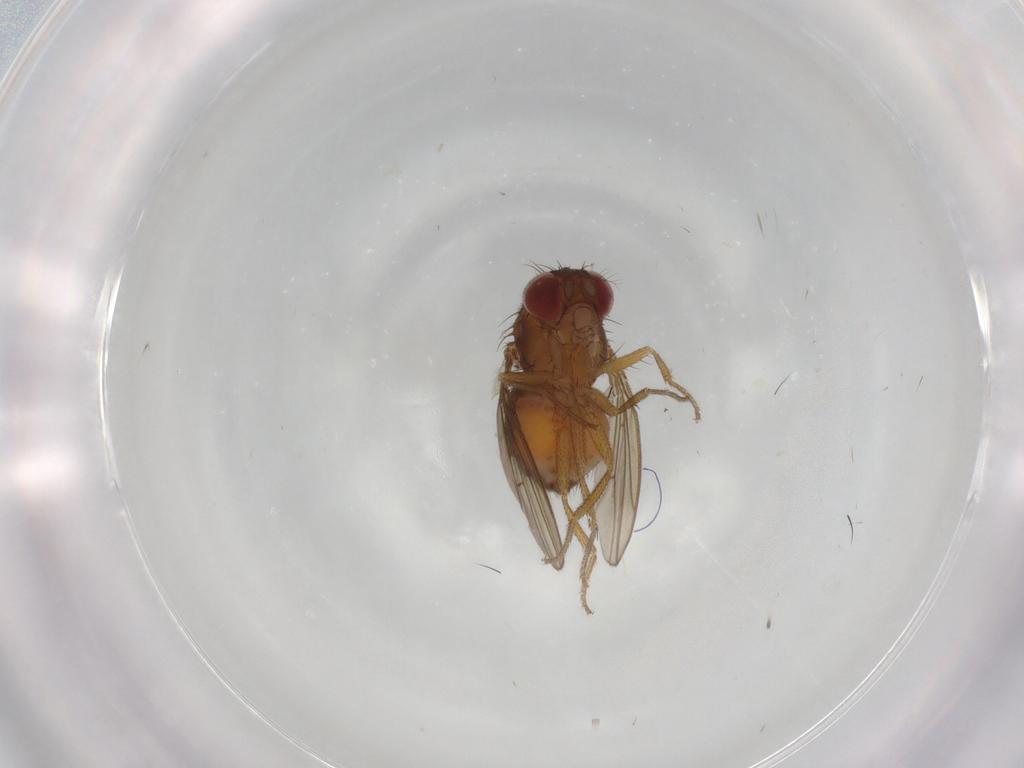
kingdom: Animalia
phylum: Arthropoda
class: Insecta
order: Diptera
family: Drosophilidae
